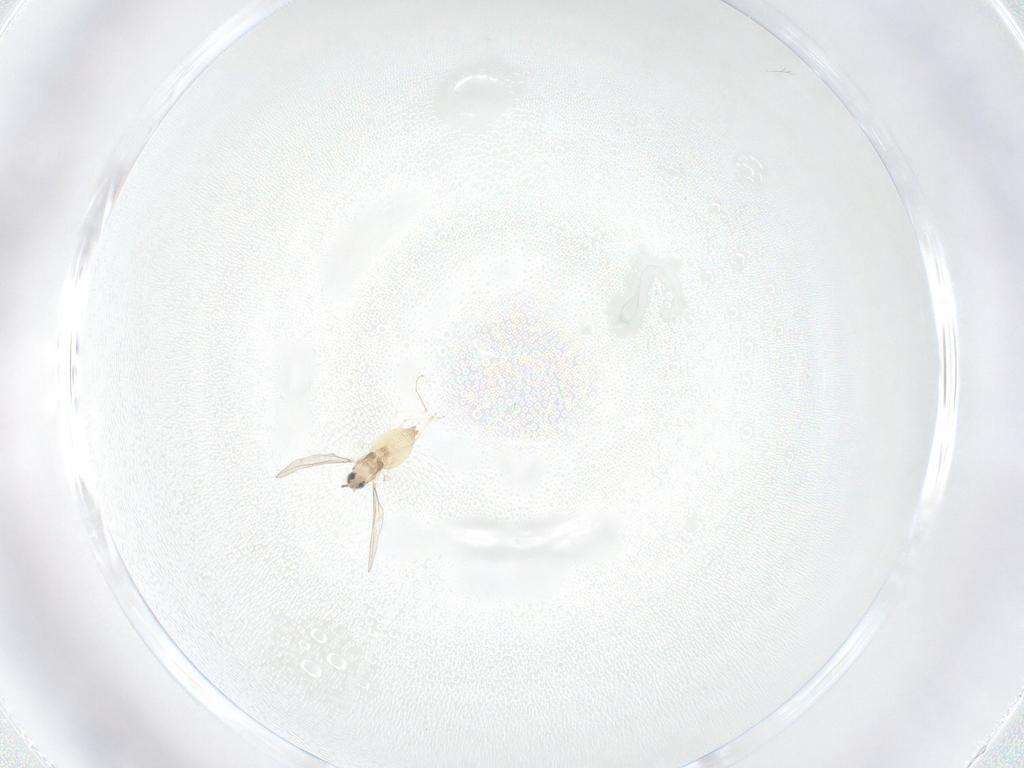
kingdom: Animalia
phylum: Arthropoda
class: Insecta
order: Diptera
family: Cecidomyiidae
